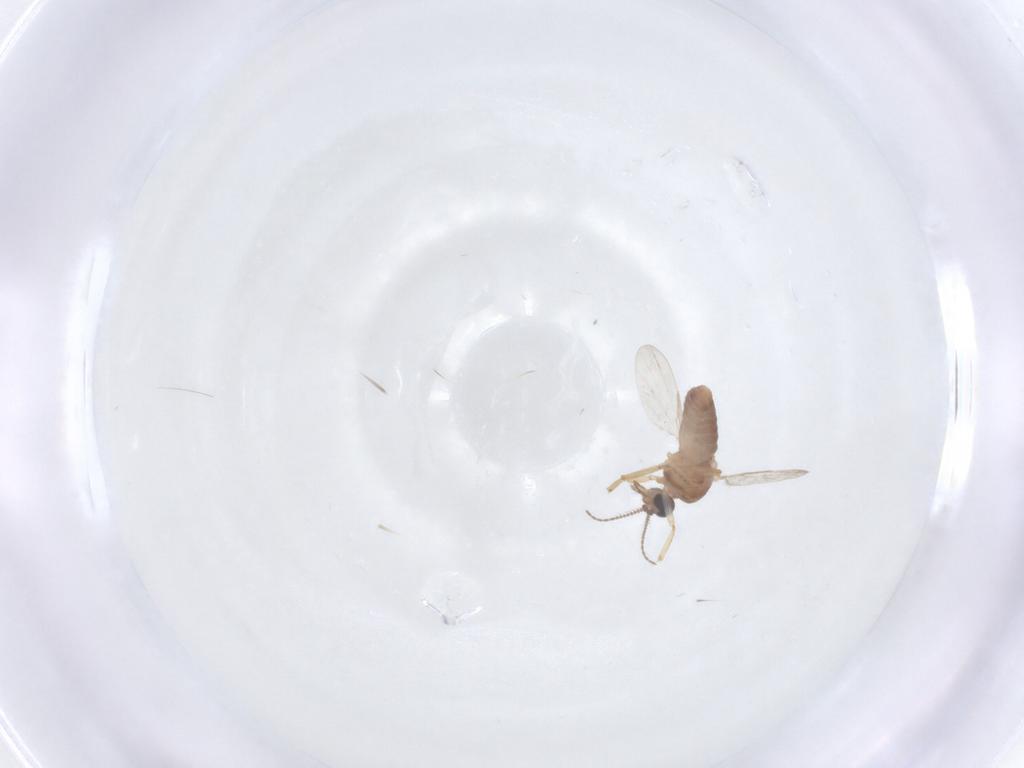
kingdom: Animalia
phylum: Arthropoda
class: Insecta
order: Diptera
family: Ceratopogonidae
